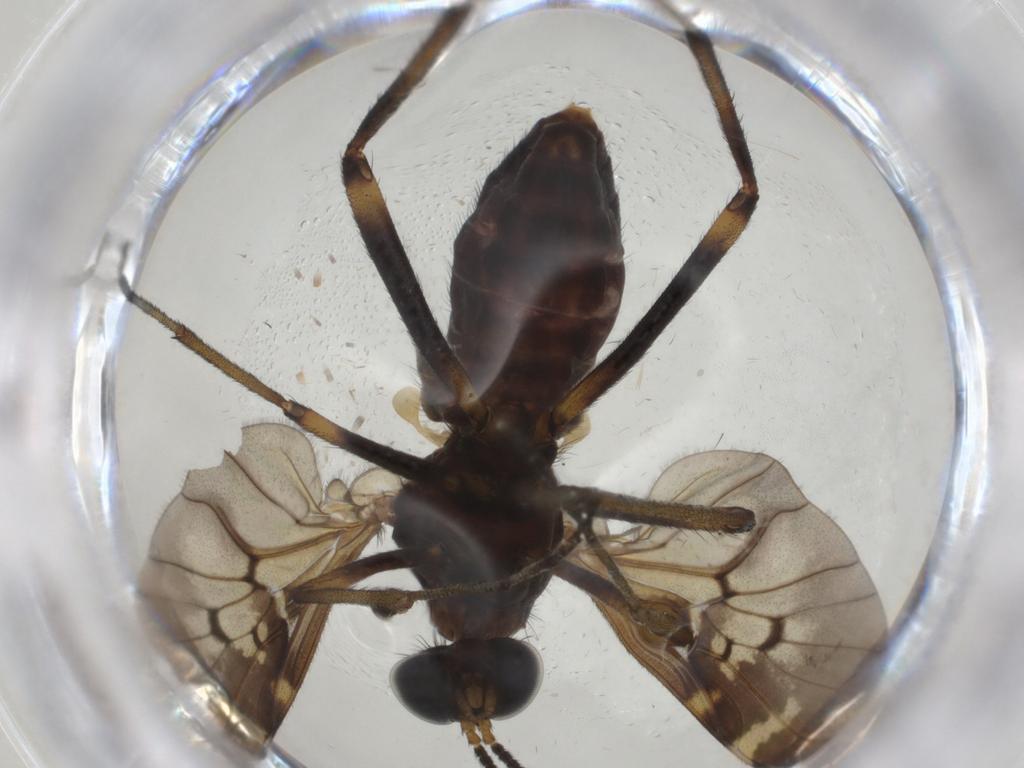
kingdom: Animalia
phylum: Arthropoda
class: Insecta
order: Diptera
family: Anisopodidae
